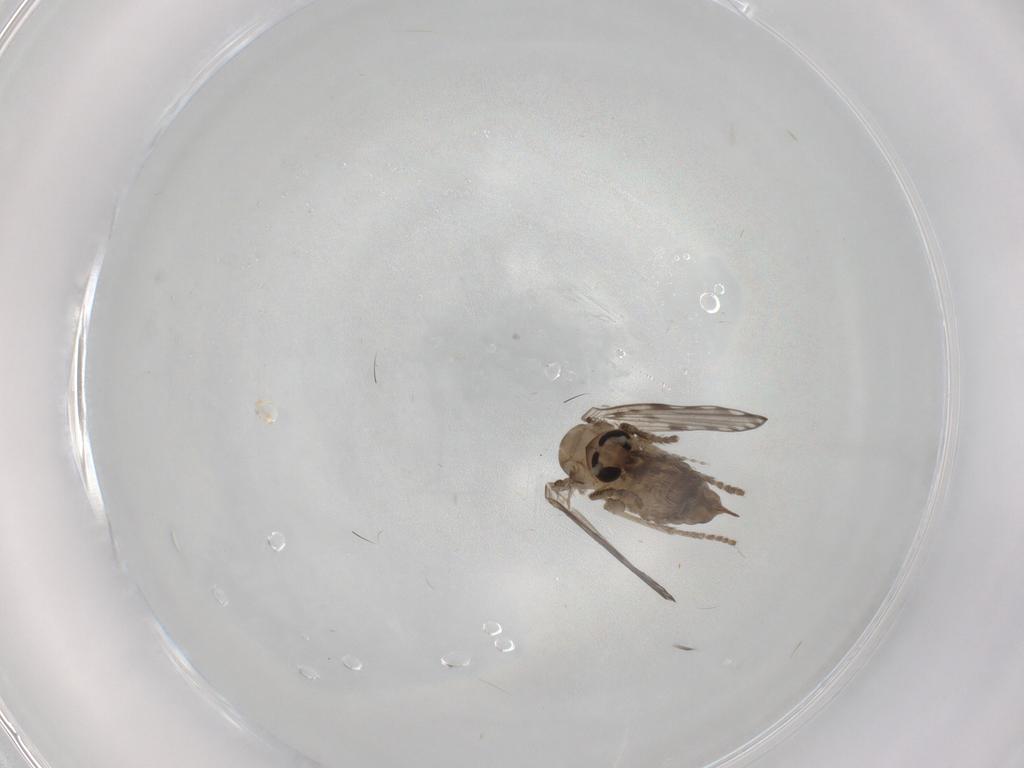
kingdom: Animalia
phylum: Arthropoda
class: Insecta
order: Diptera
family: Psychodidae
